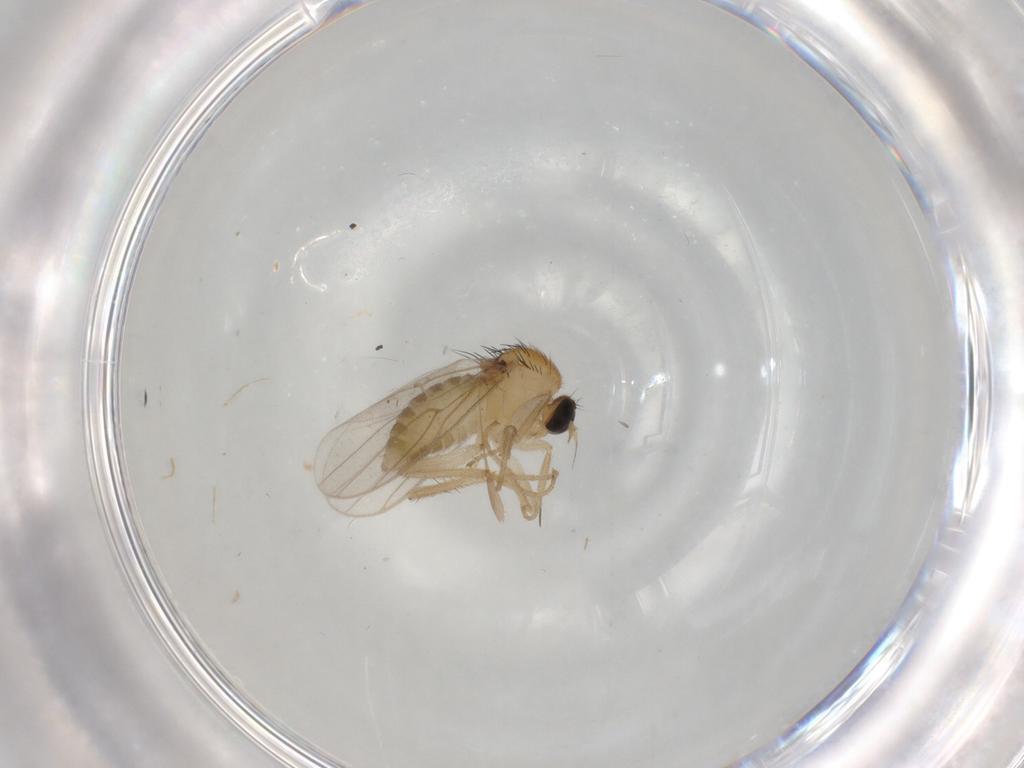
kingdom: Animalia
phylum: Arthropoda
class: Insecta
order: Diptera
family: Hybotidae
